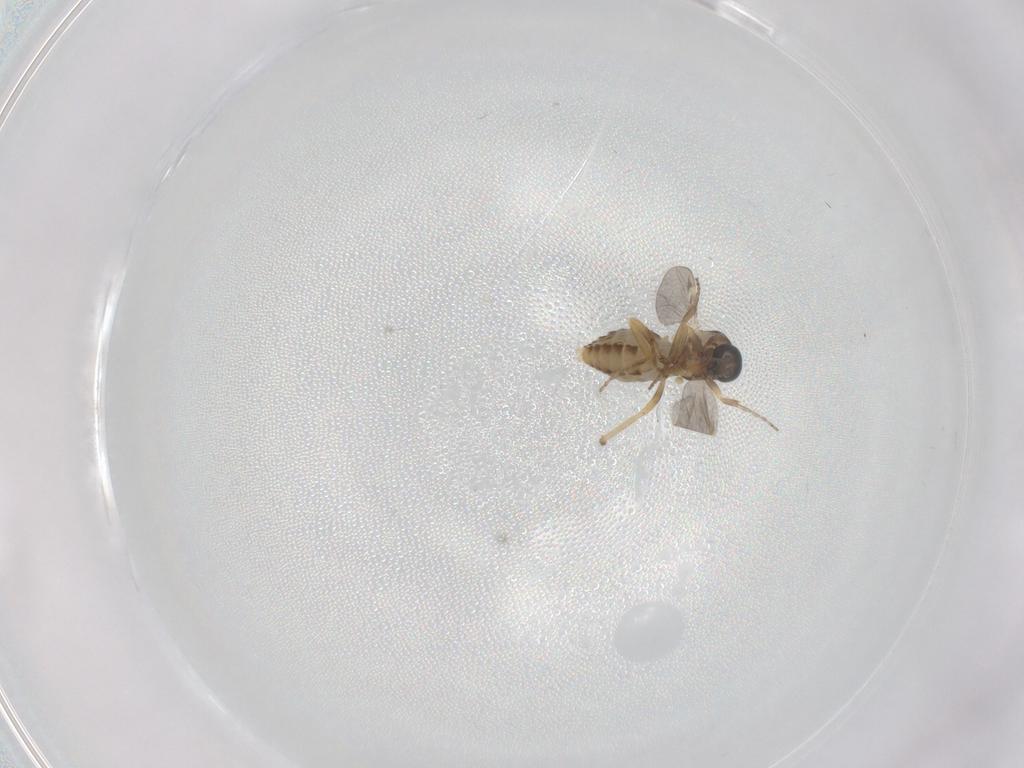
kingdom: Animalia
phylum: Arthropoda
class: Insecta
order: Diptera
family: Ceratopogonidae
